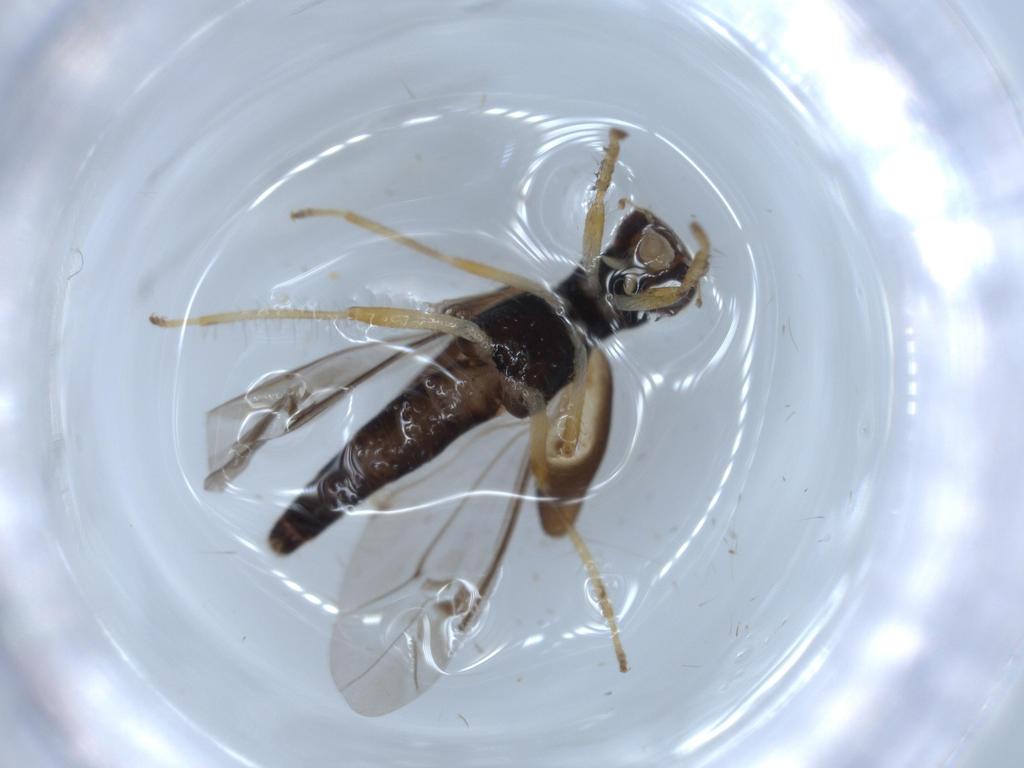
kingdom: Animalia
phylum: Arthropoda
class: Insecta
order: Coleoptera
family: Cleridae
